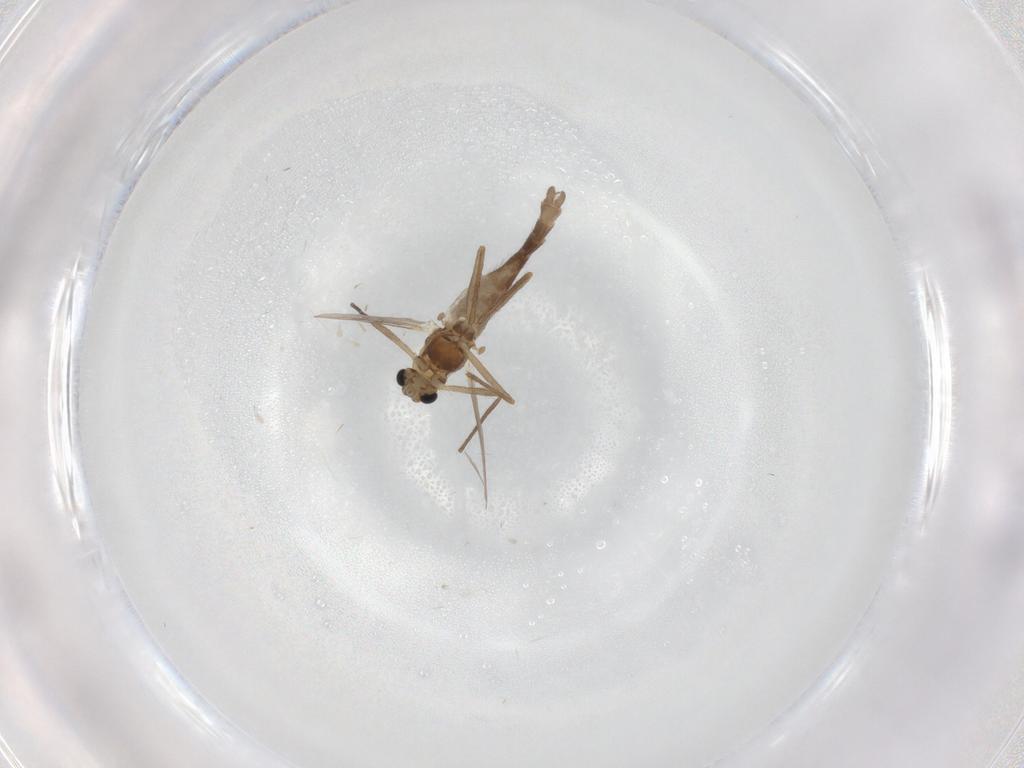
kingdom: Animalia
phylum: Arthropoda
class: Insecta
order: Diptera
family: Chironomidae
